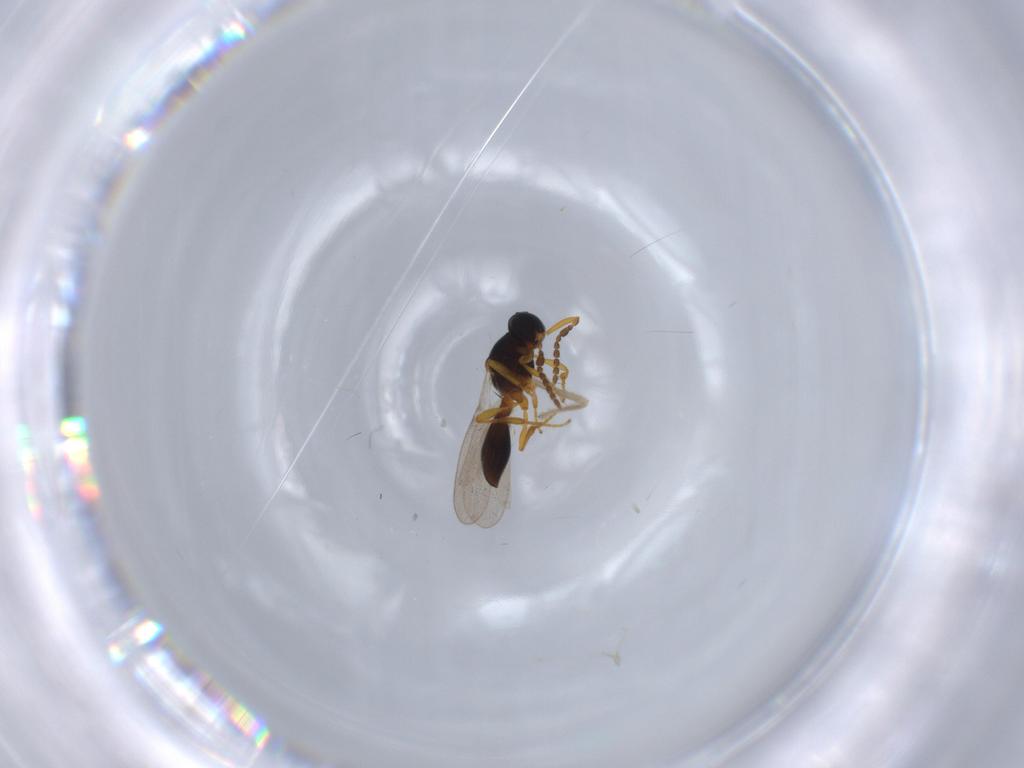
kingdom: Animalia
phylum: Arthropoda
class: Insecta
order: Hymenoptera
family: Platygastridae
